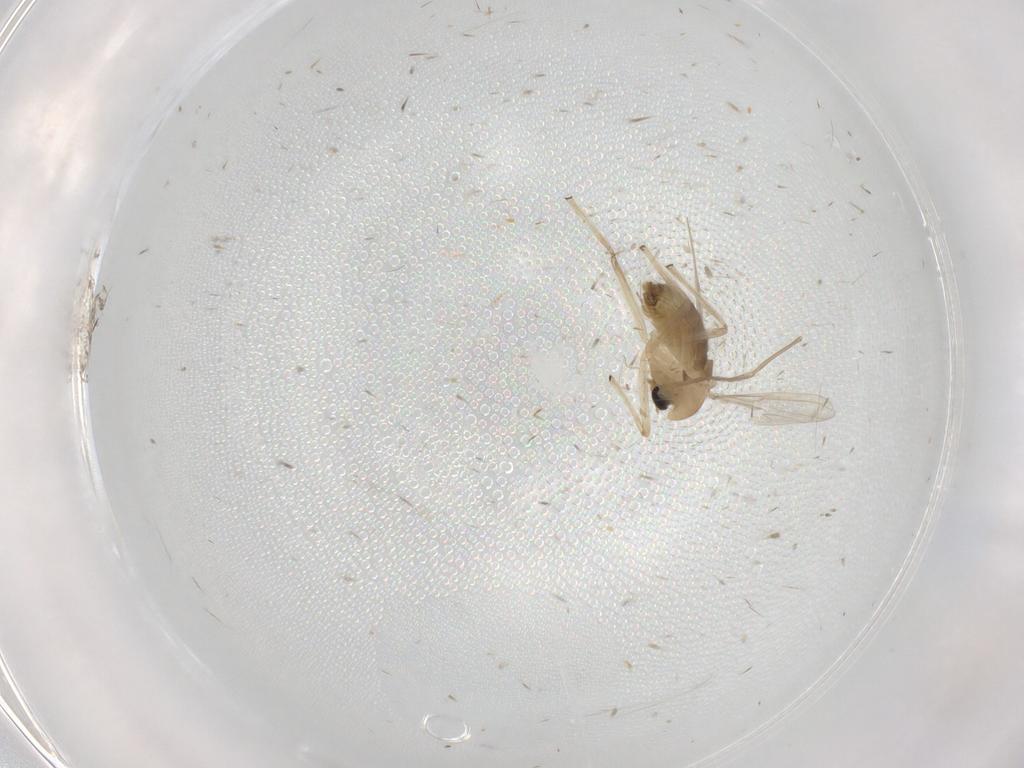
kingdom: Animalia
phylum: Arthropoda
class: Insecta
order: Diptera
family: Chironomidae
